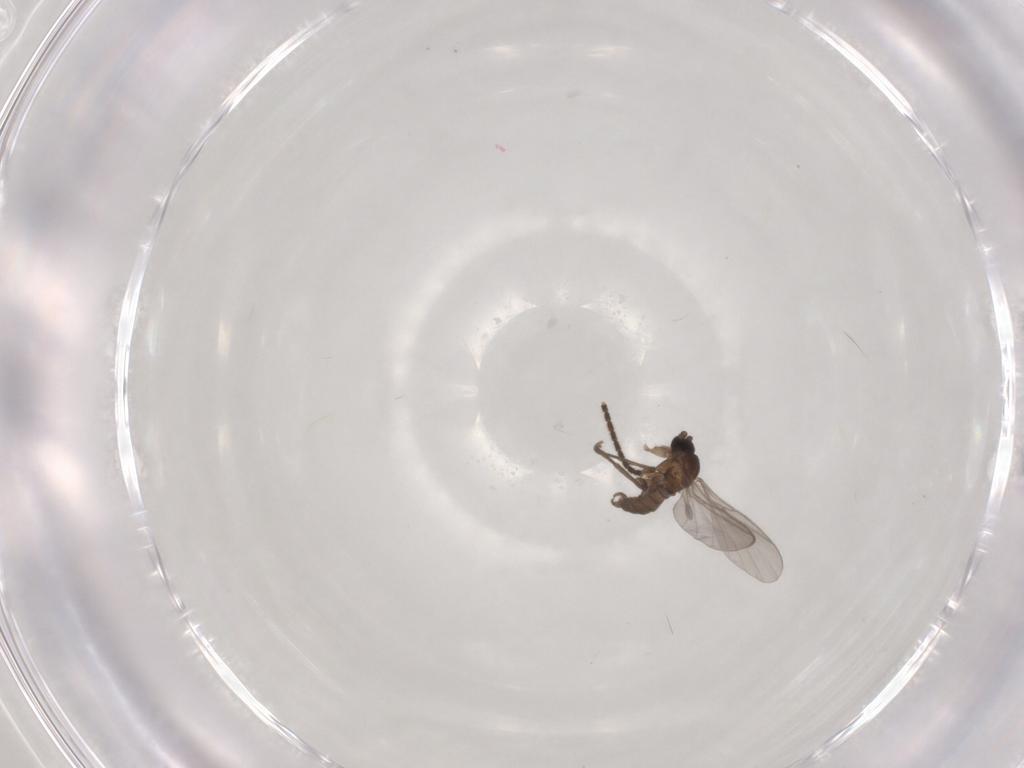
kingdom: Animalia
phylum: Arthropoda
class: Insecta
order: Diptera
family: Sciaridae
